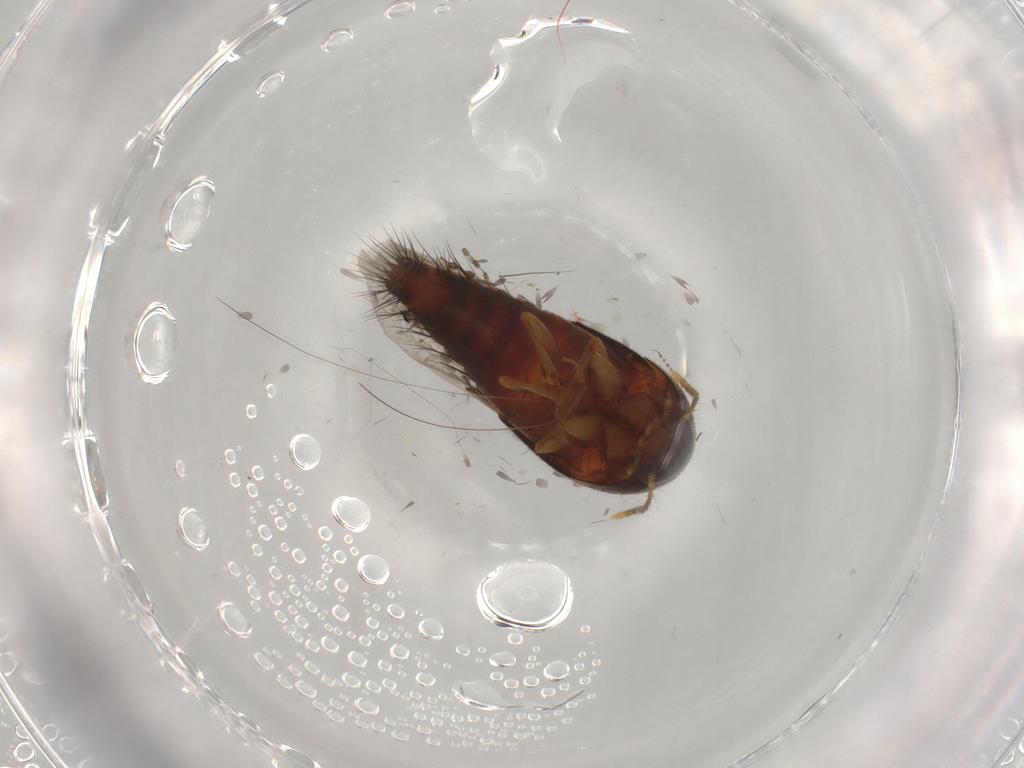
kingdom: Animalia
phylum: Arthropoda
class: Insecta
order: Coleoptera
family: Staphylinidae
